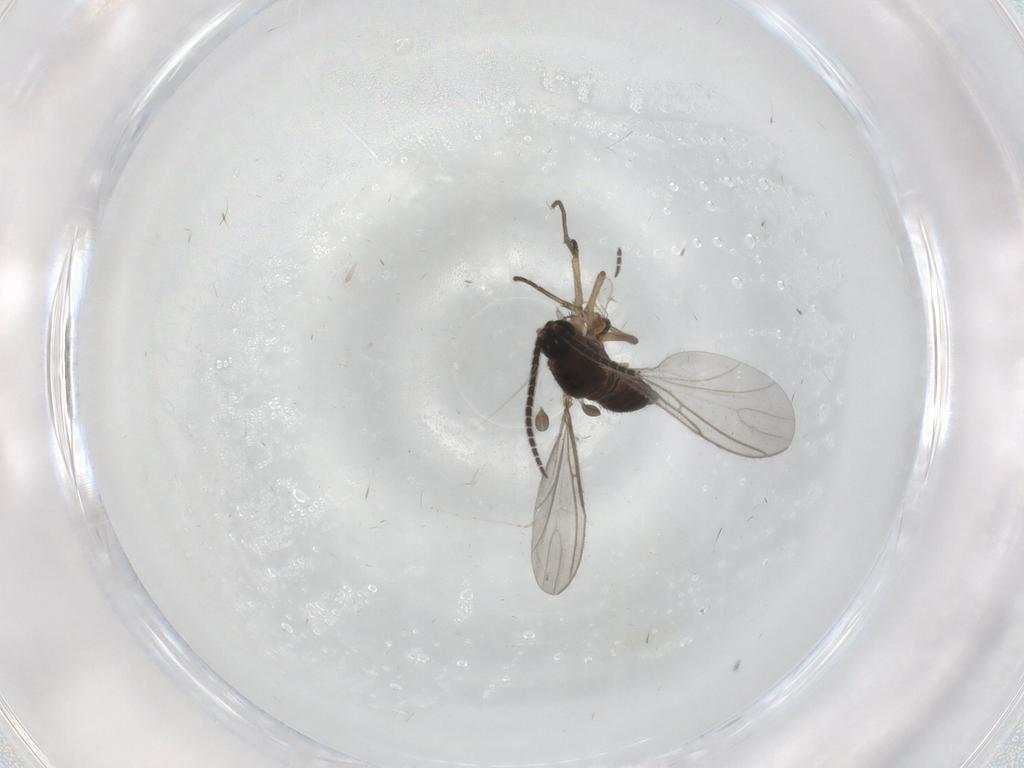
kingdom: Animalia
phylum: Arthropoda
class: Insecta
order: Diptera
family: Sciaridae
